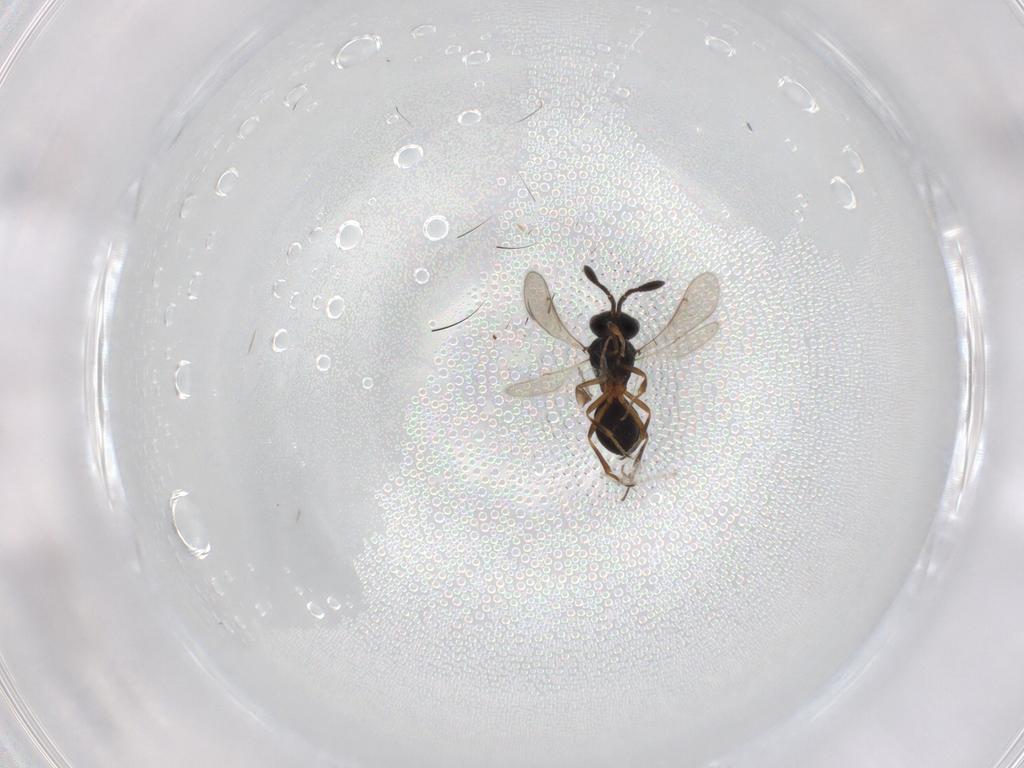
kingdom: Animalia
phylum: Arthropoda
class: Insecta
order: Hymenoptera
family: Scelionidae
